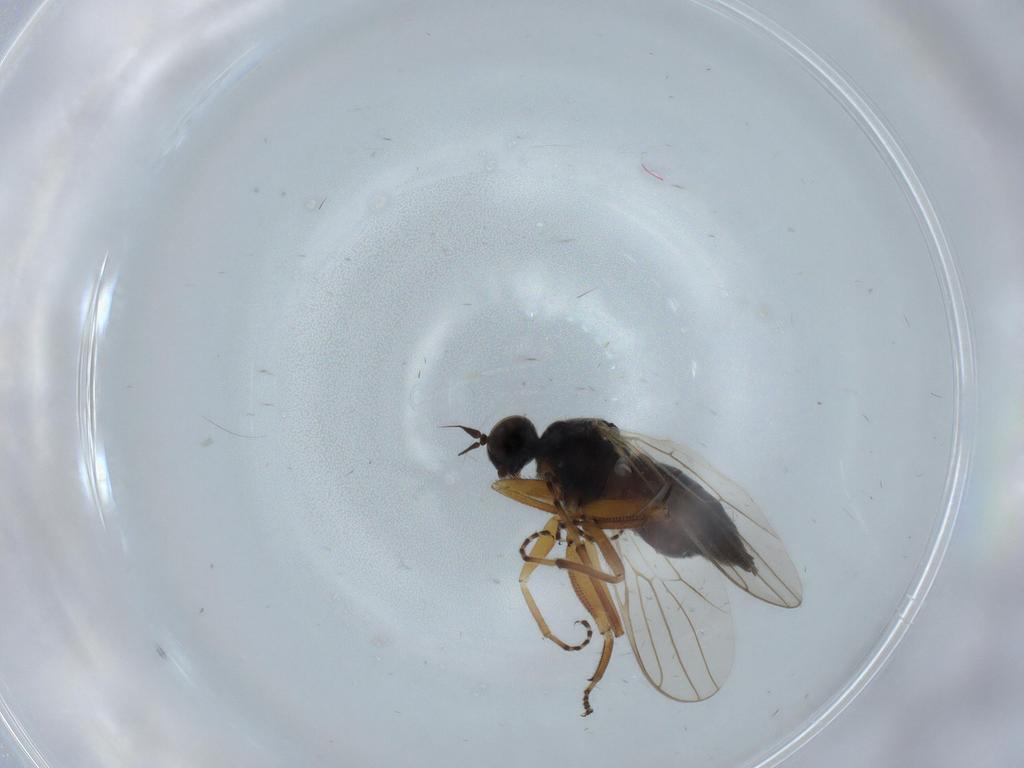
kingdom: Animalia
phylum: Arthropoda
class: Insecta
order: Diptera
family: Hybotidae
